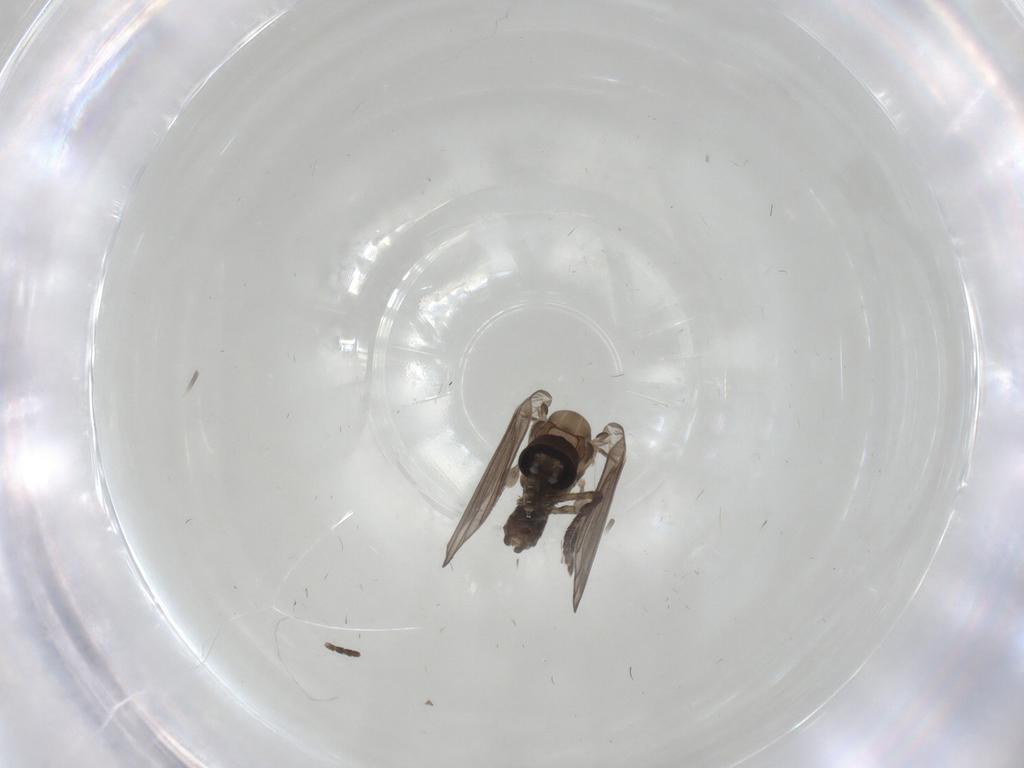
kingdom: Animalia
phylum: Arthropoda
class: Insecta
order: Diptera
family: Psychodidae
